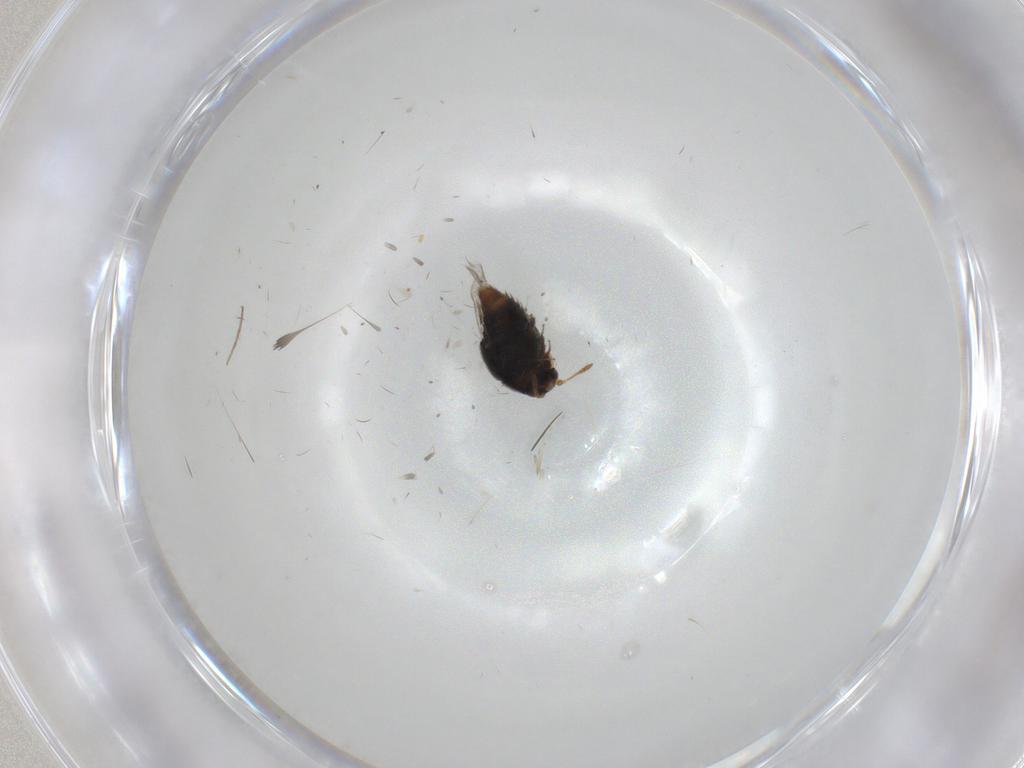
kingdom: Animalia
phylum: Arthropoda
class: Insecta
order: Coleoptera
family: Staphylinidae
